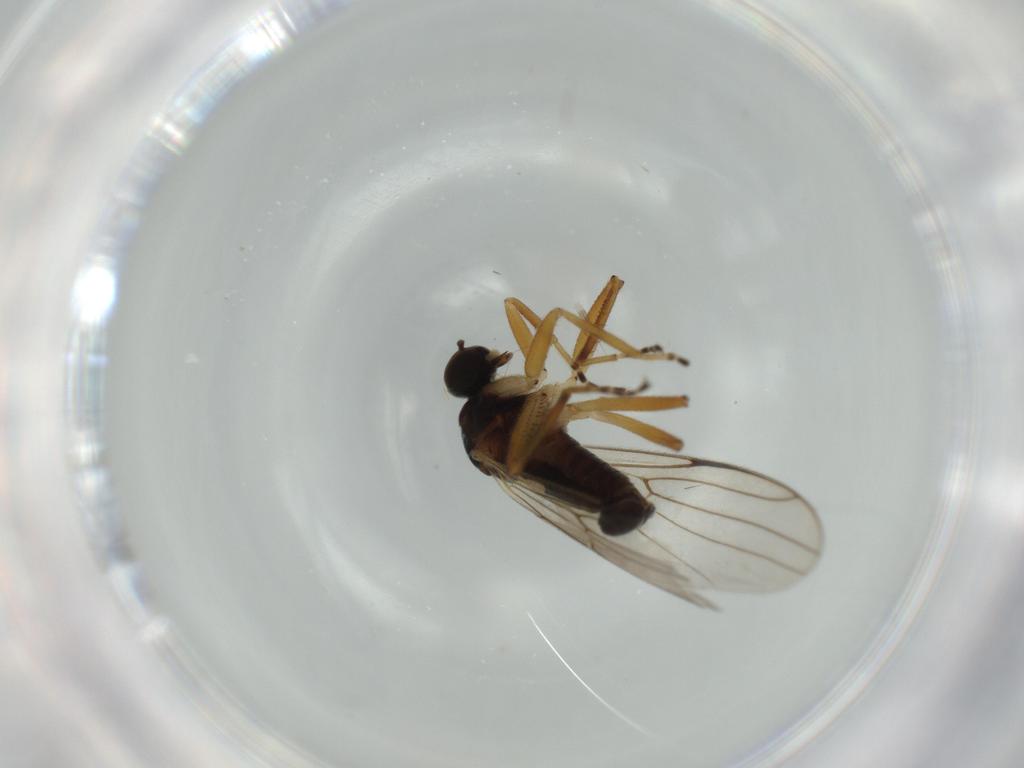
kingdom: Animalia
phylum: Arthropoda
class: Insecta
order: Diptera
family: Hybotidae
